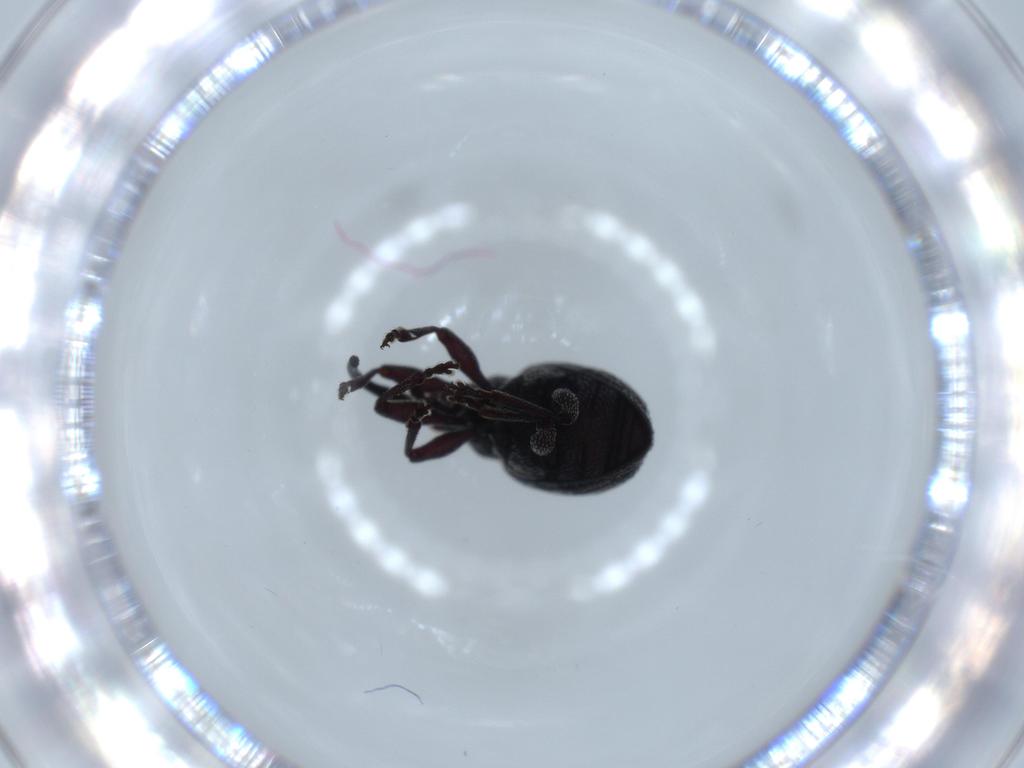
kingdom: Animalia
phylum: Arthropoda
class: Insecta
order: Coleoptera
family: Brentidae
